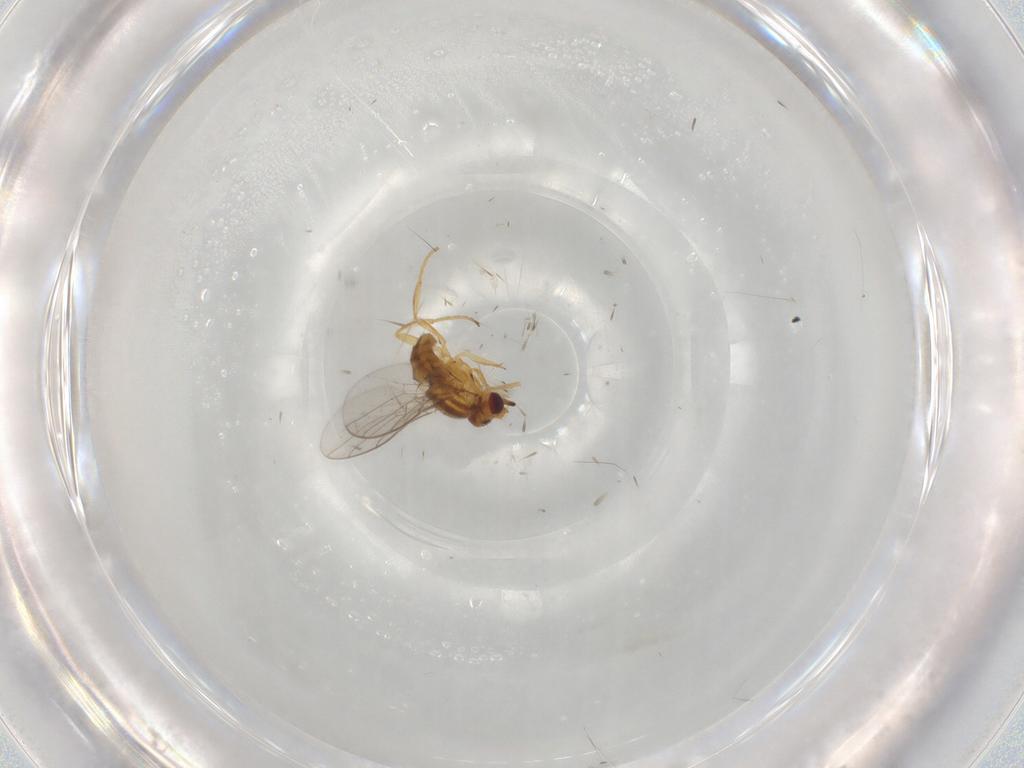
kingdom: Animalia
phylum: Arthropoda
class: Insecta
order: Diptera
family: Chloropidae
